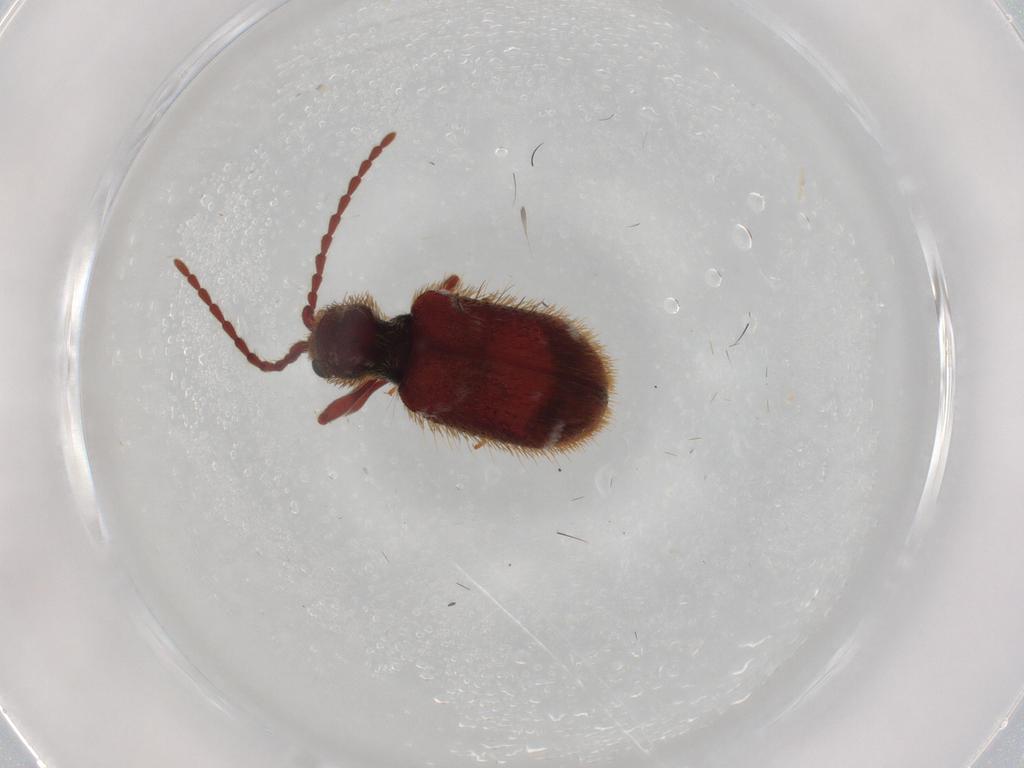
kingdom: Animalia
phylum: Arthropoda
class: Insecta
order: Coleoptera
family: Ptinidae
